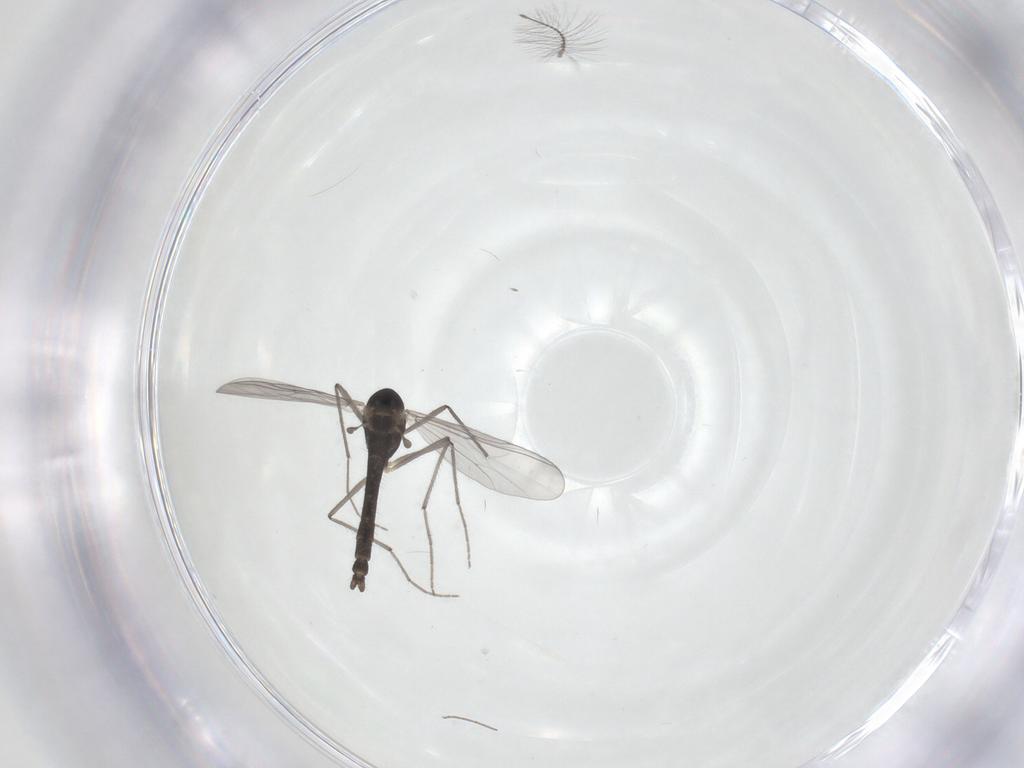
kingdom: Animalia
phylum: Arthropoda
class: Insecta
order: Diptera
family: Chironomidae
